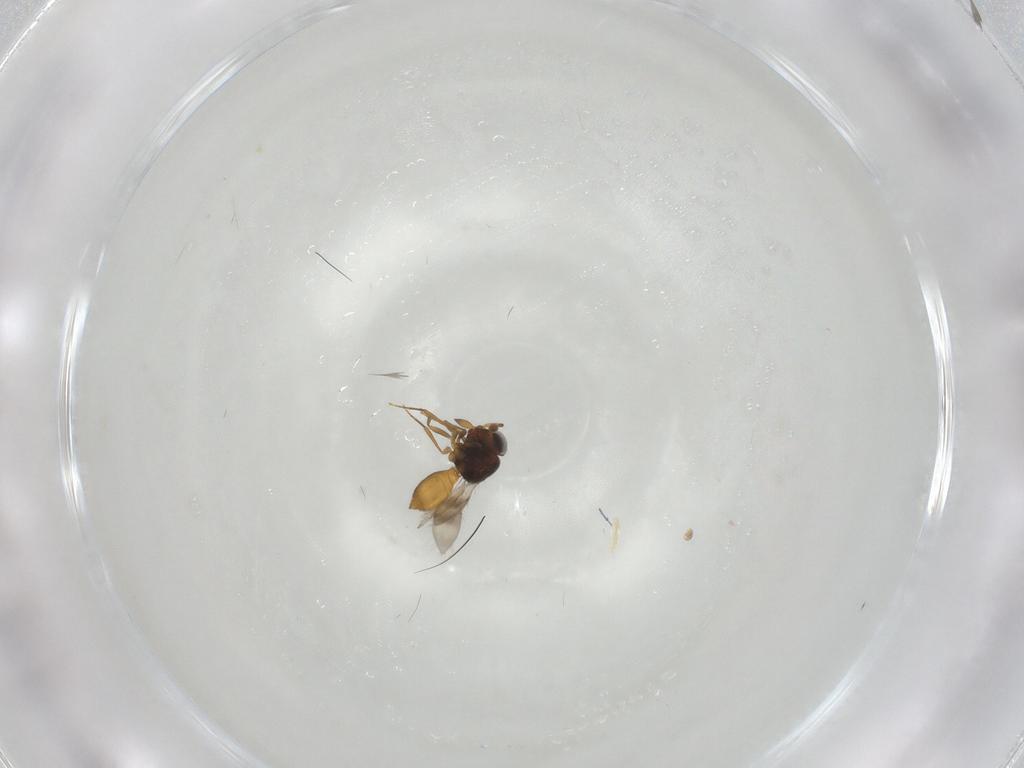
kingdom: Animalia
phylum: Arthropoda
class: Insecta
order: Hymenoptera
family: Scelionidae
